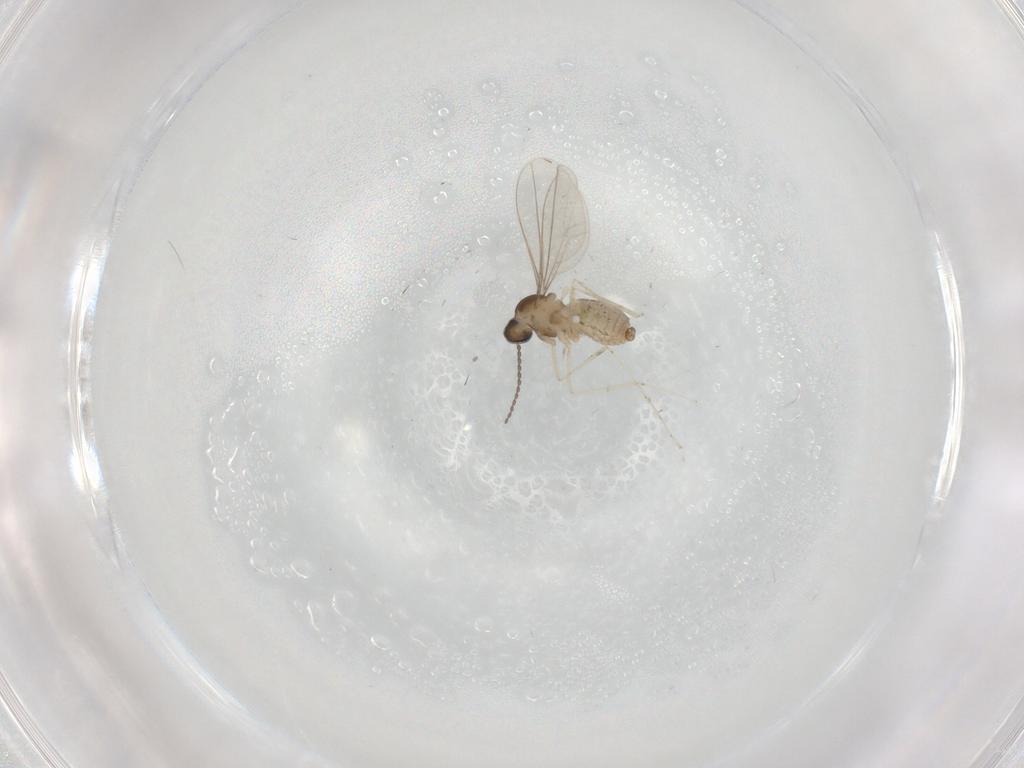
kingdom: Animalia
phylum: Arthropoda
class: Insecta
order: Diptera
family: Cecidomyiidae
